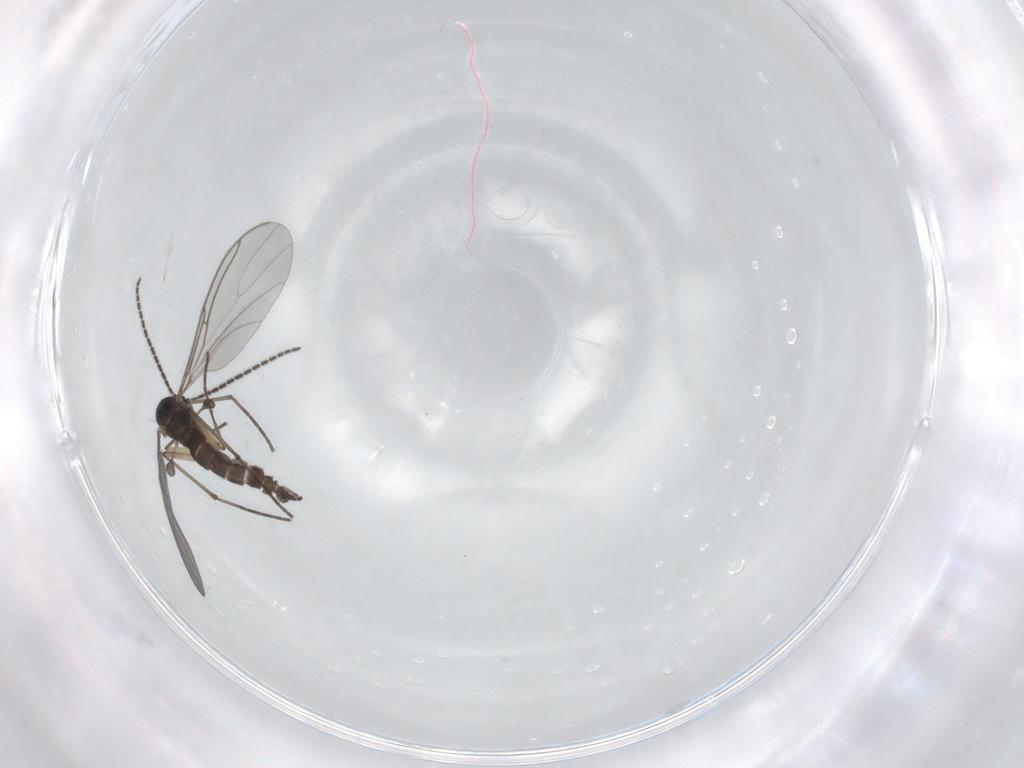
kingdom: Animalia
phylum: Arthropoda
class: Insecta
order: Diptera
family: Sciaridae
